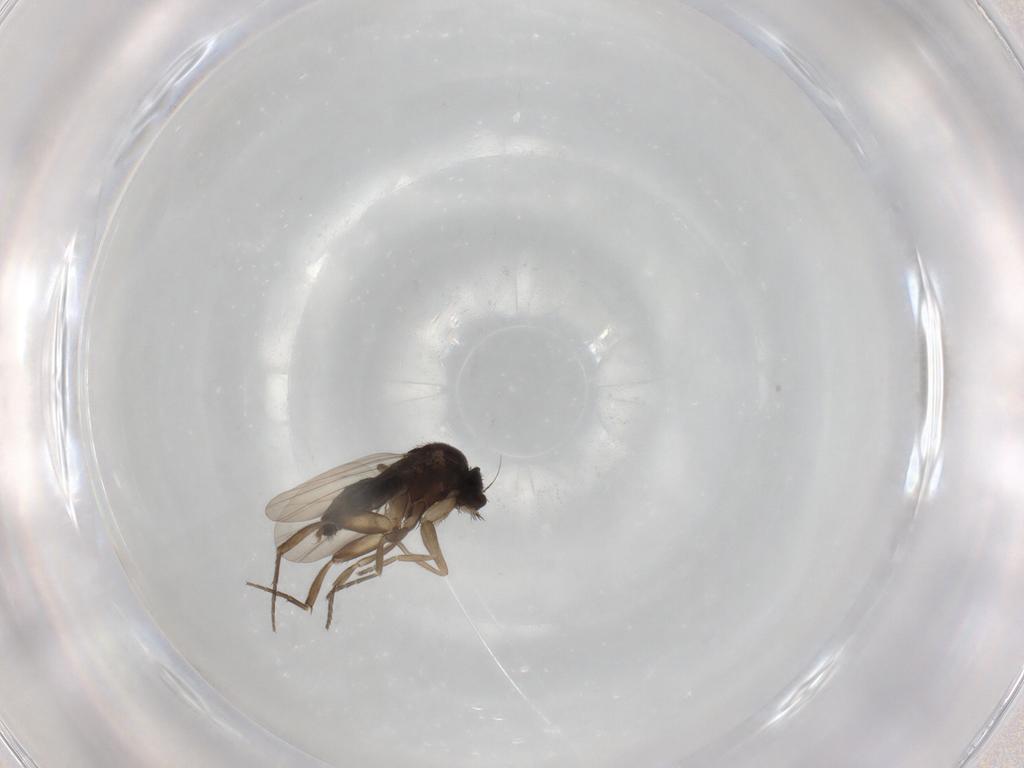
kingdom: Animalia
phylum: Arthropoda
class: Insecta
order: Diptera
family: Phoridae
